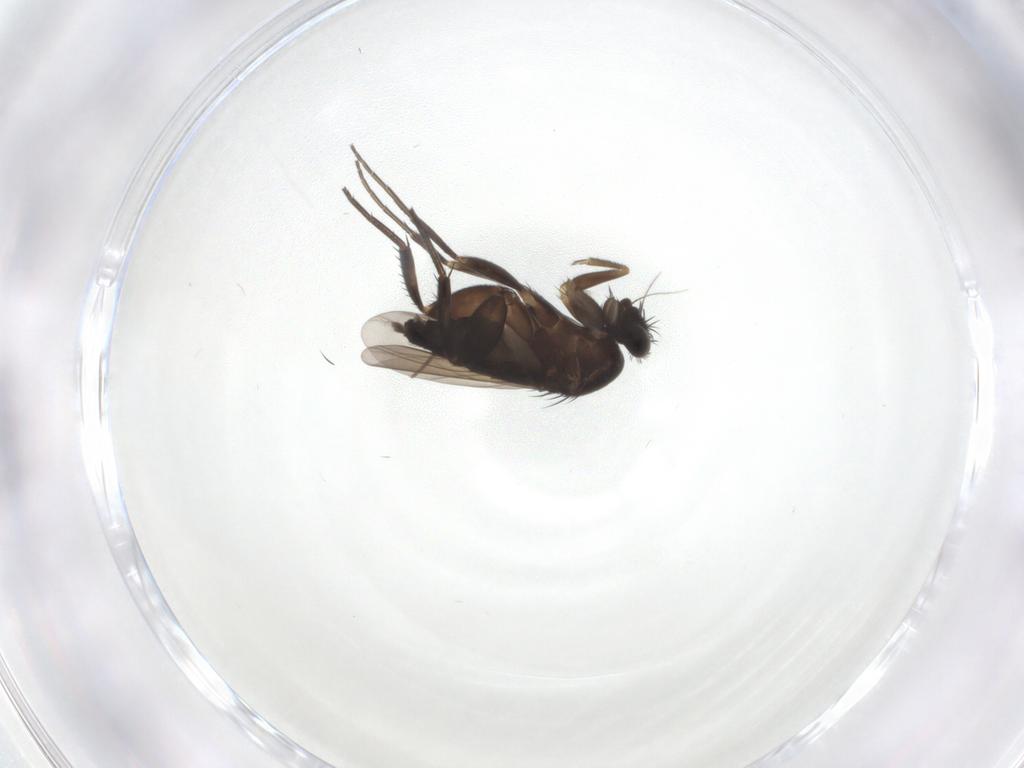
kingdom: Animalia
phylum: Arthropoda
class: Insecta
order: Diptera
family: Phoridae
